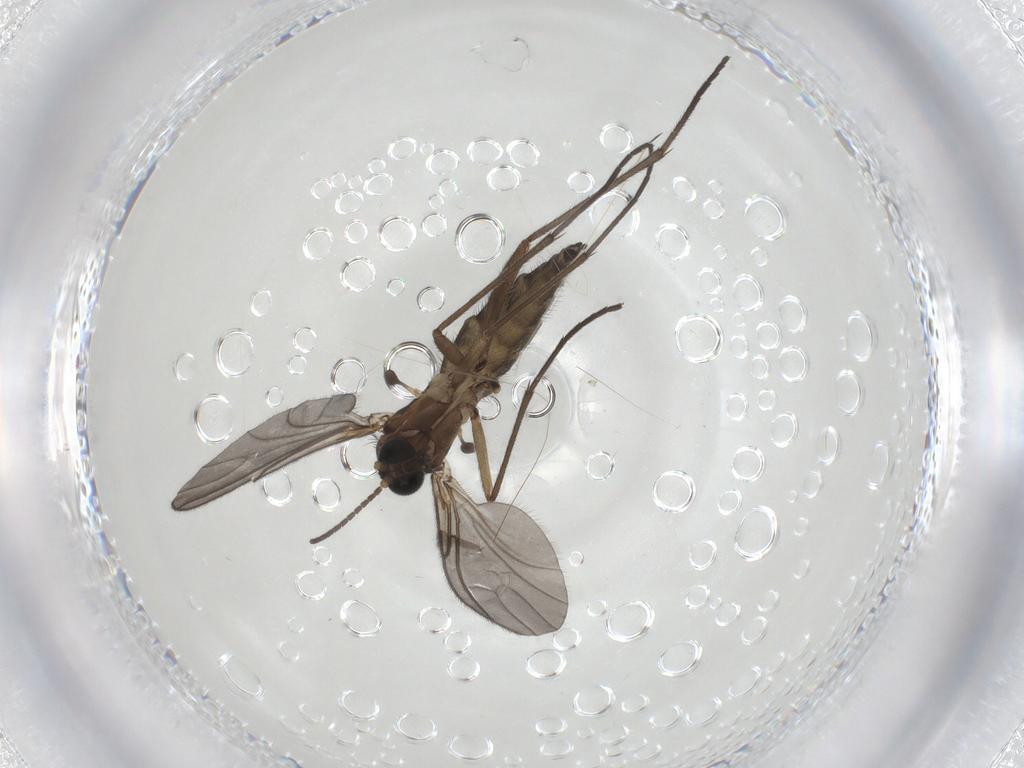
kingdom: Animalia
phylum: Arthropoda
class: Insecta
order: Diptera
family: Sciaridae
